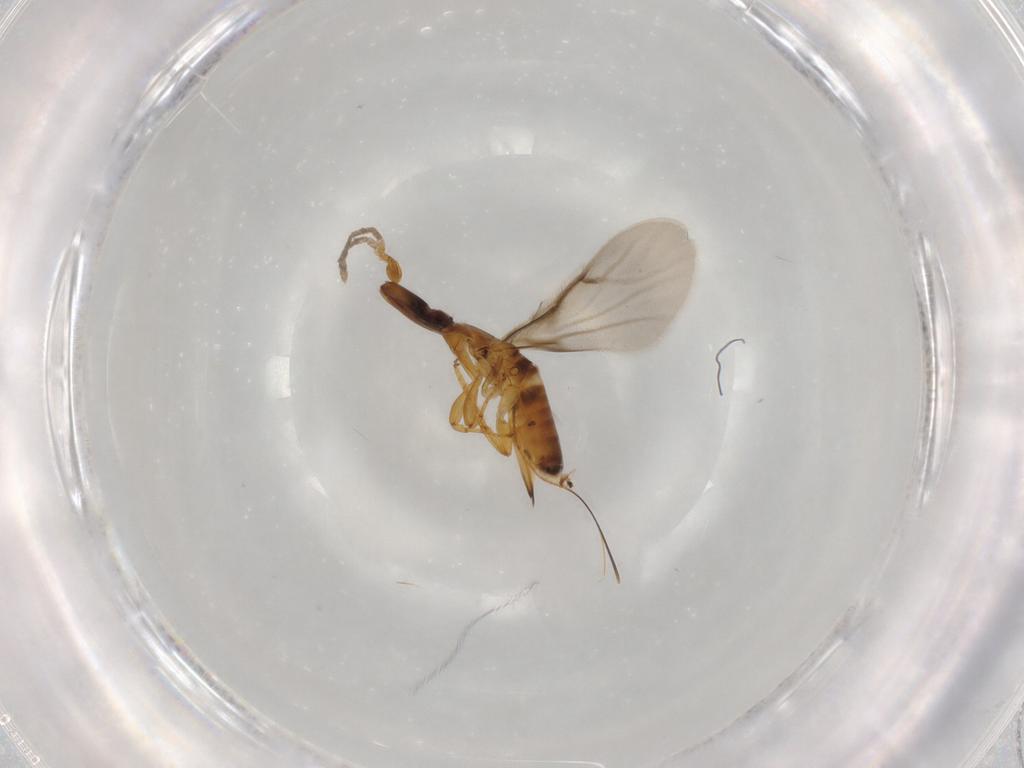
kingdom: Animalia
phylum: Arthropoda
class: Insecta
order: Hymenoptera
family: Agaonidae
